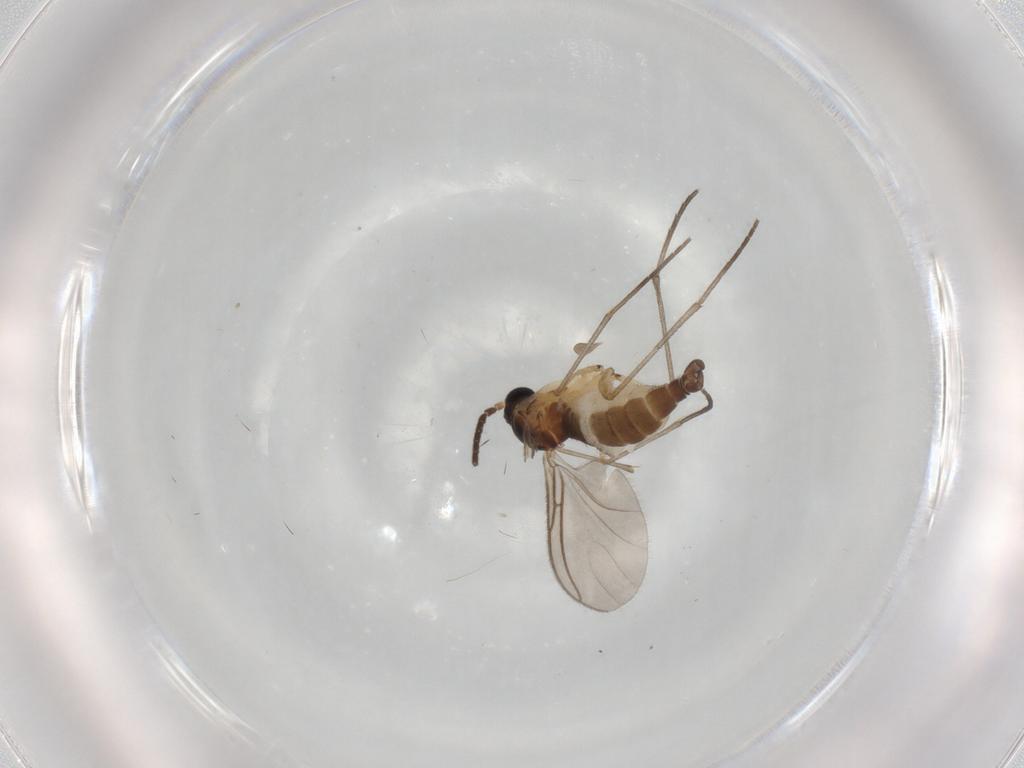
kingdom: Animalia
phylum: Arthropoda
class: Insecta
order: Diptera
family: Sciaridae
